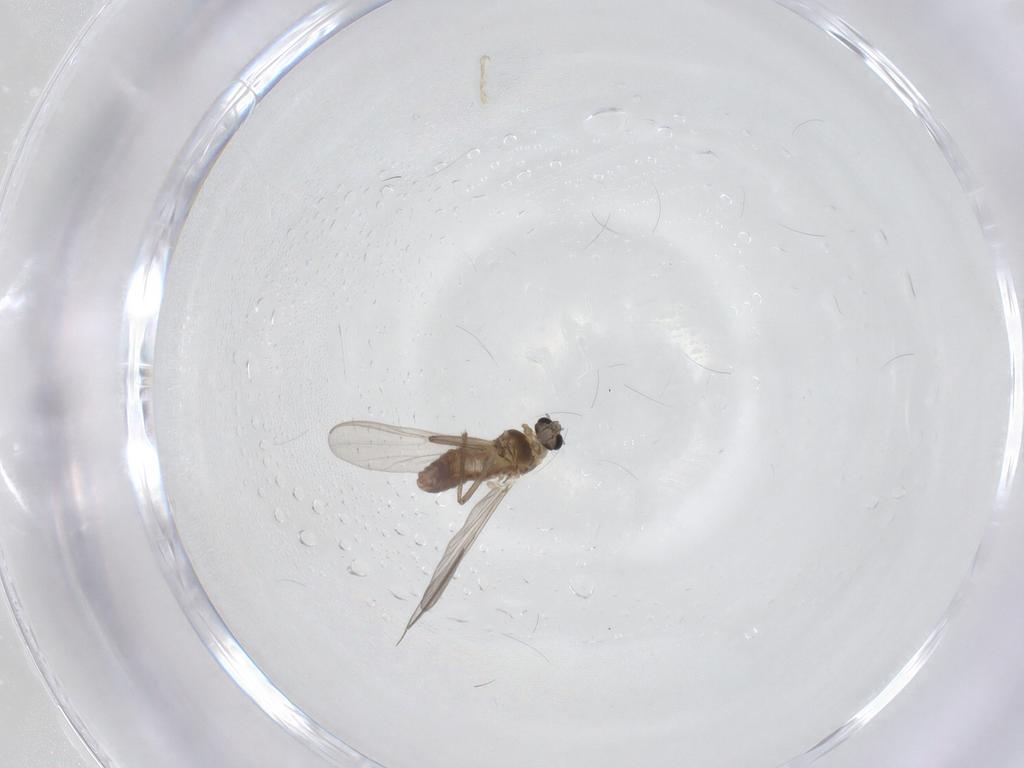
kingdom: Animalia
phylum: Arthropoda
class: Insecta
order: Diptera
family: Chironomidae
